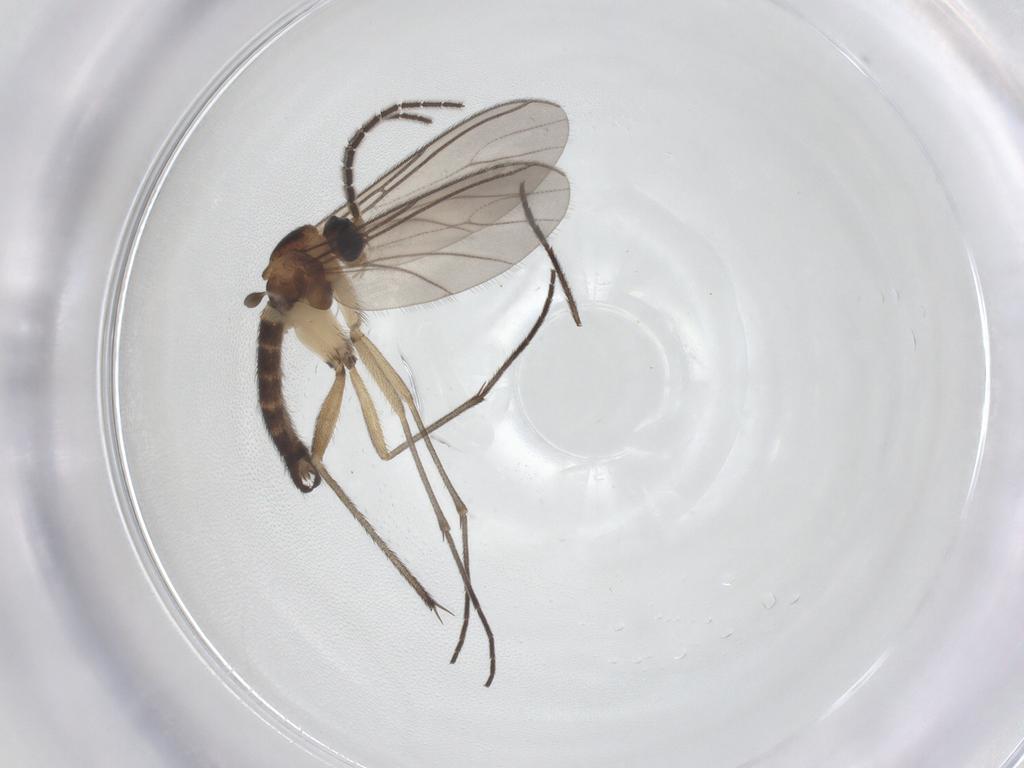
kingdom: Animalia
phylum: Arthropoda
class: Insecta
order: Diptera
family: Sciaridae
